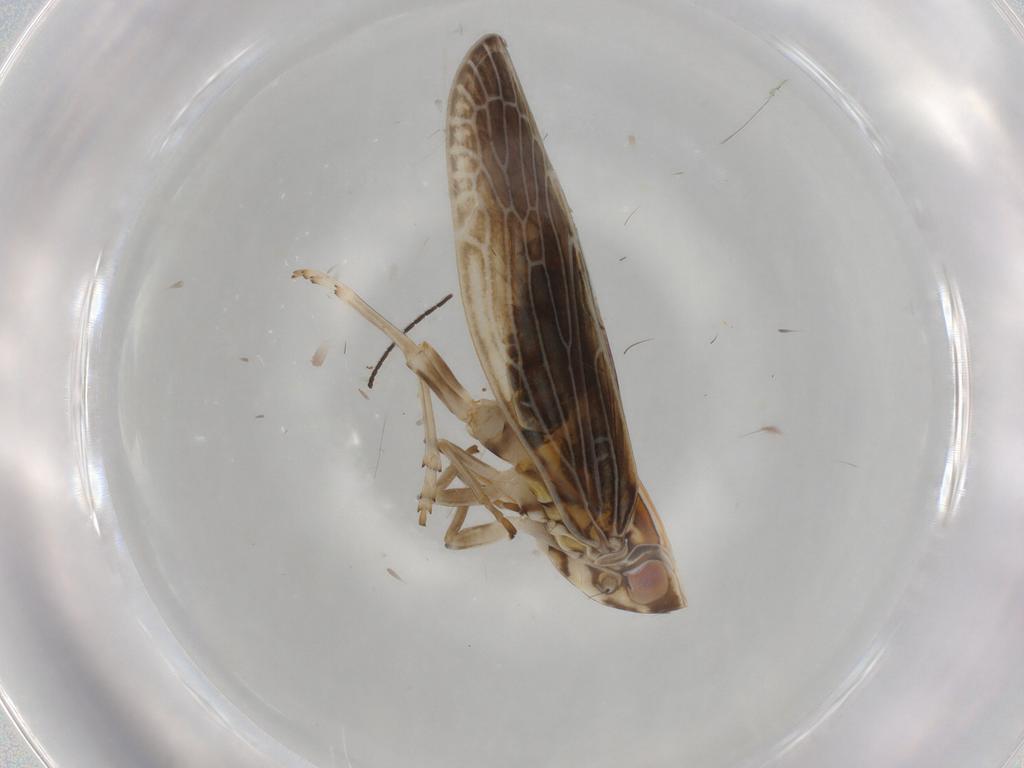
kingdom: Animalia
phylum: Arthropoda
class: Insecta
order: Hemiptera
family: Achilidae
